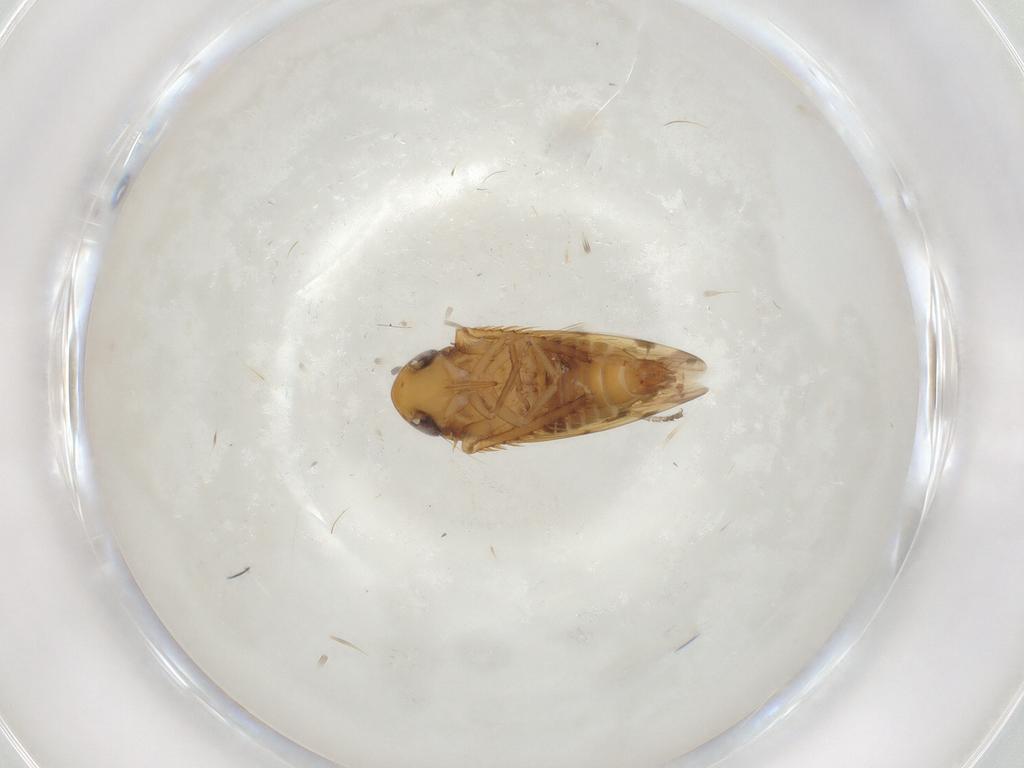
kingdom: Animalia
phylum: Arthropoda
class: Insecta
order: Hemiptera
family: Cicadellidae
